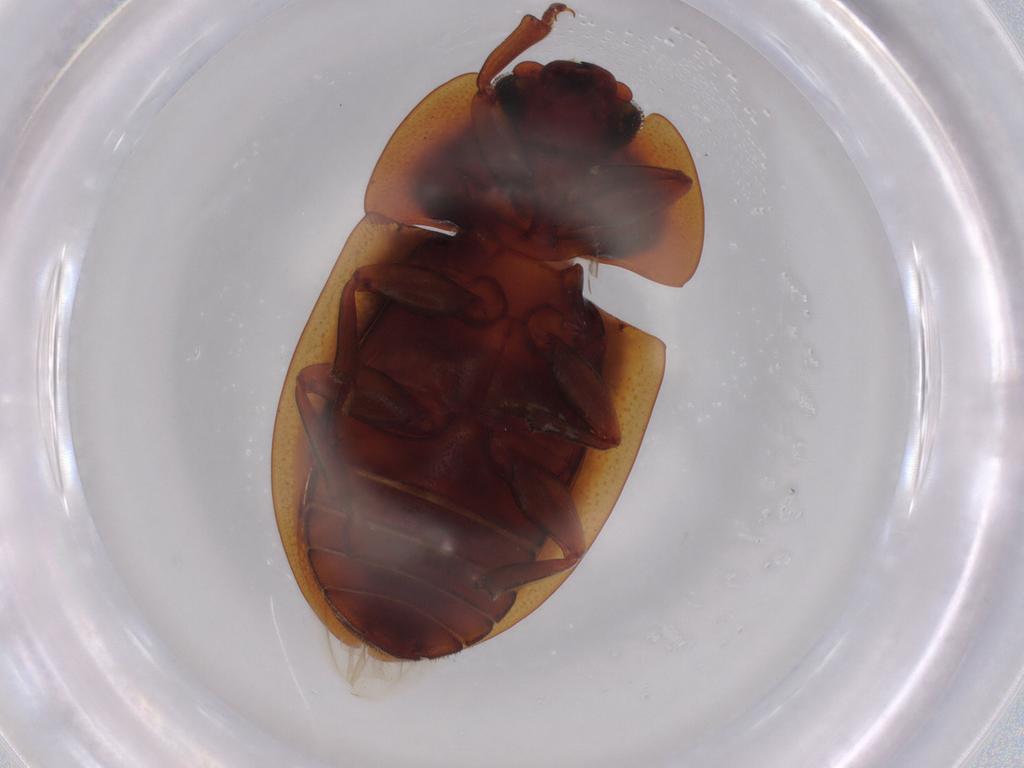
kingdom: Animalia
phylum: Arthropoda
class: Insecta
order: Coleoptera
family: Nitidulidae
